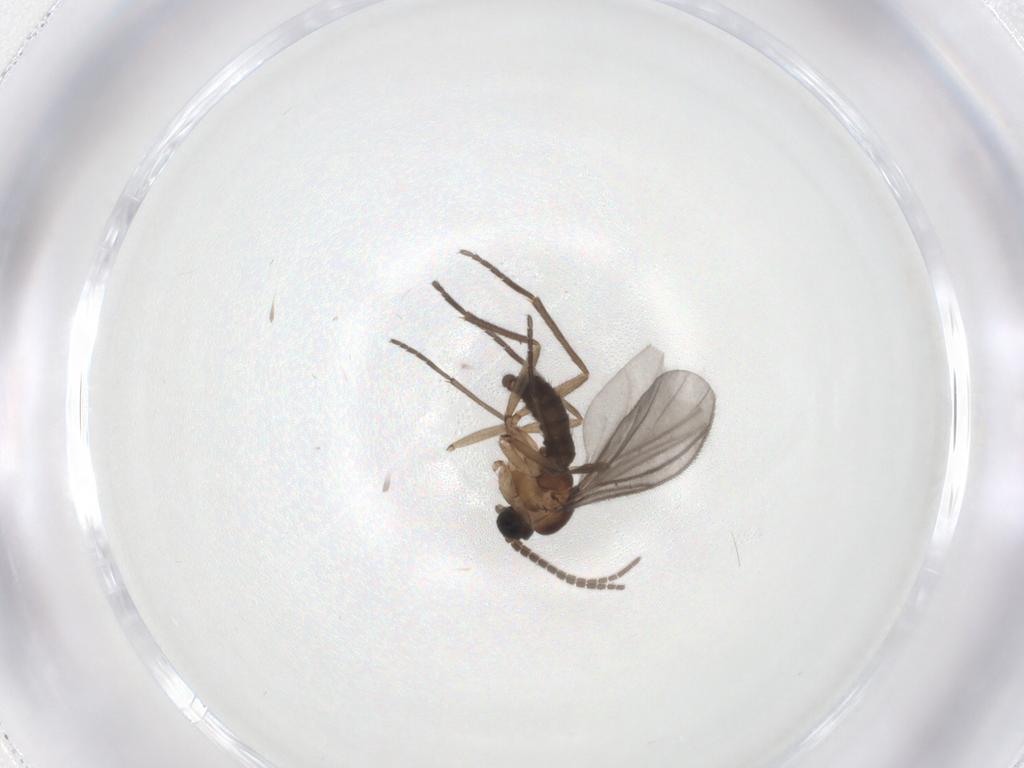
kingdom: Animalia
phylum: Arthropoda
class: Insecta
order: Diptera
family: Sciaridae
